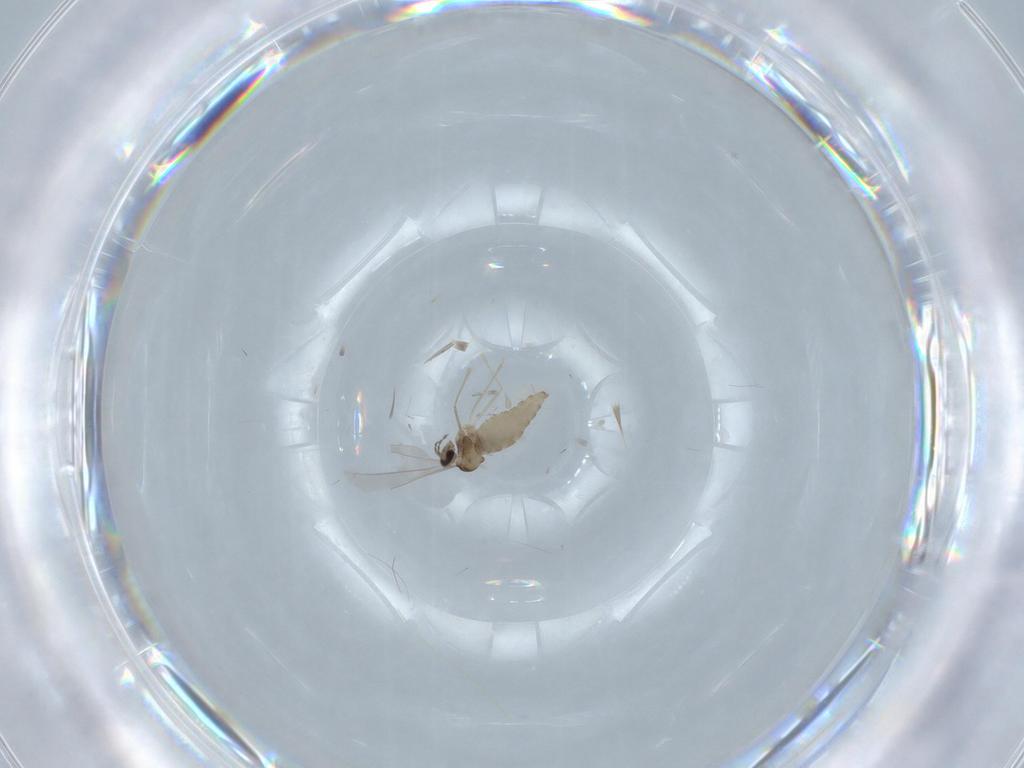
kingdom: Animalia
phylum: Arthropoda
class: Insecta
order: Diptera
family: Cecidomyiidae
